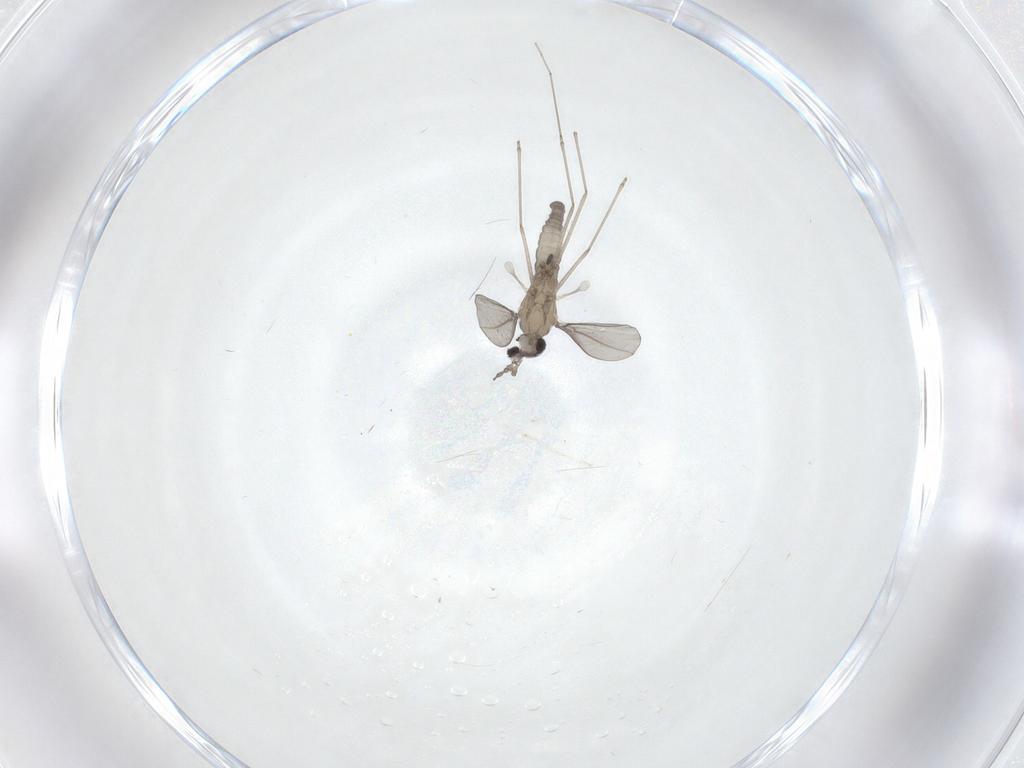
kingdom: Animalia
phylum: Arthropoda
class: Insecta
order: Diptera
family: Cecidomyiidae
